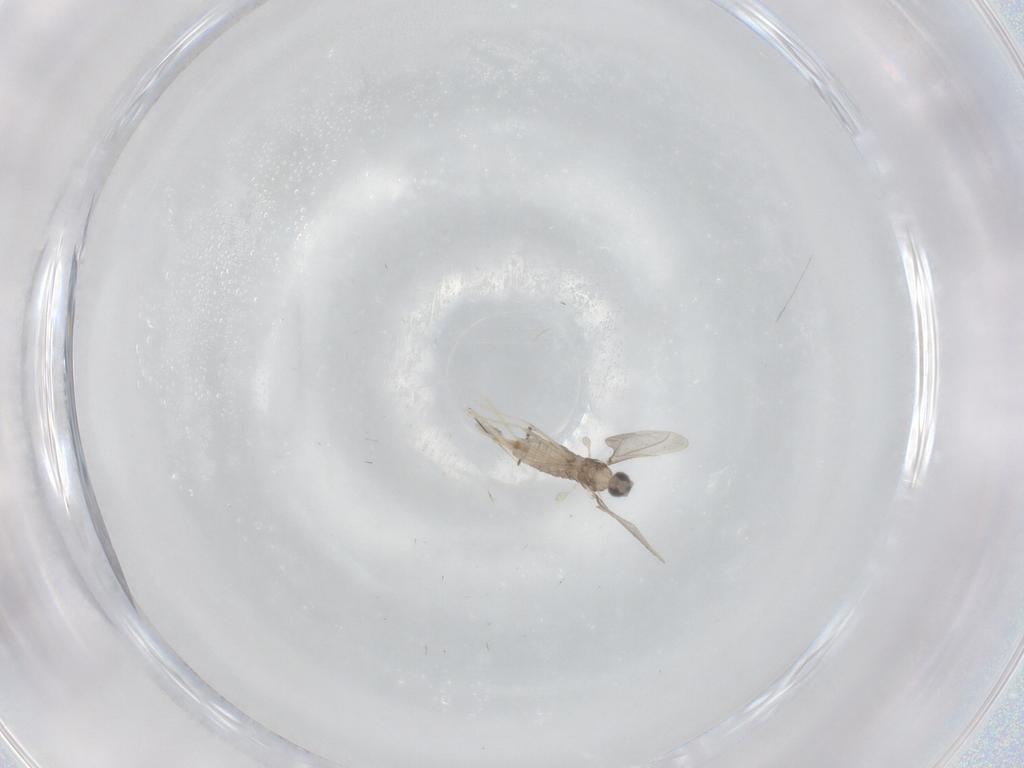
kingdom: Animalia
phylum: Arthropoda
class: Insecta
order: Diptera
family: Cecidomyiidae
